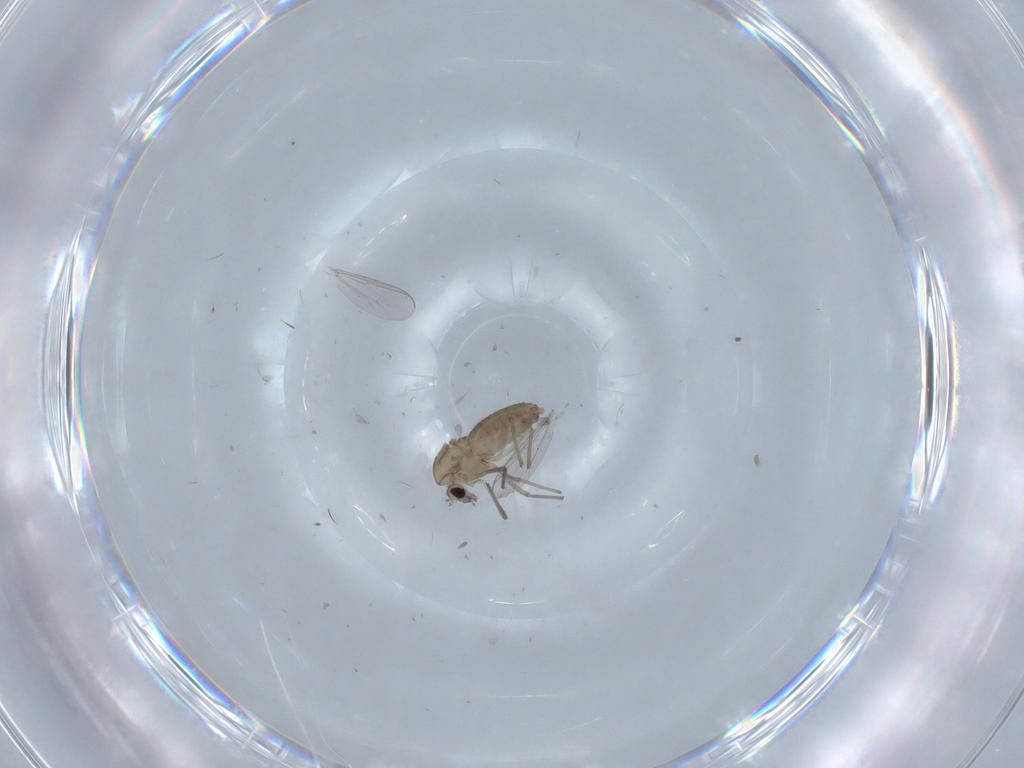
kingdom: Animalia
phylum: Arthropoda
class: Insecta
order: Diptera
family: Chironomidae
